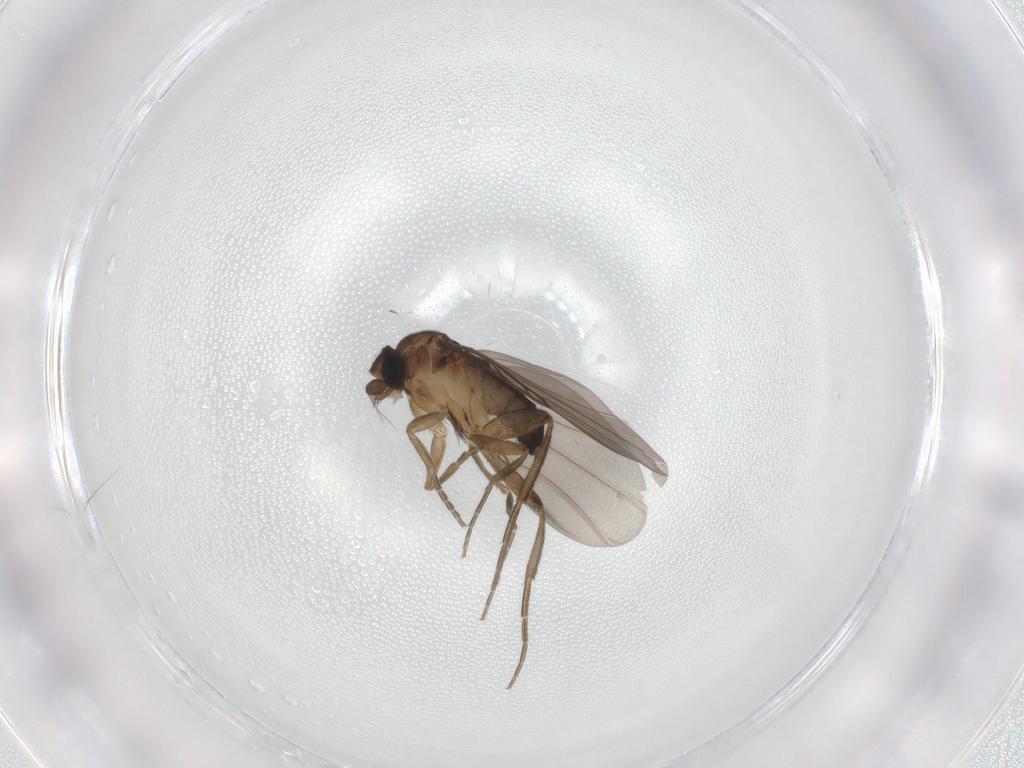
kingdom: Animalia
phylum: Arthropoda
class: Insecta
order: Diptera
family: Phoridae
